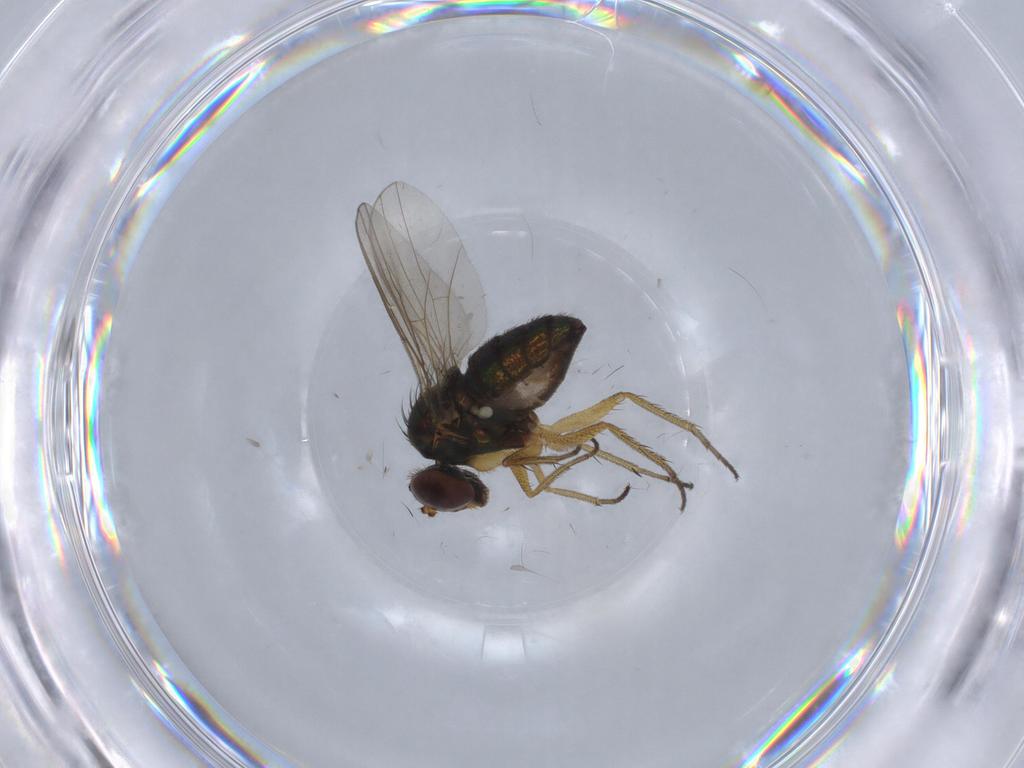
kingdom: Animalia
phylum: Arthropoda
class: Insecta
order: Diptera
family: Dolichopodidae
